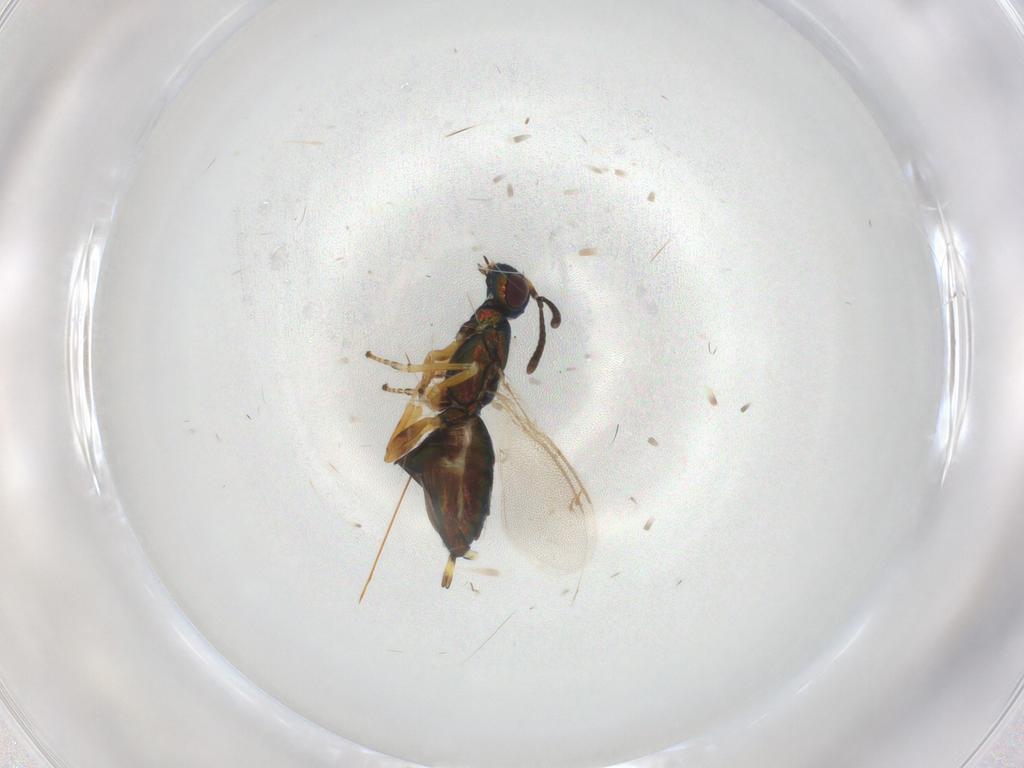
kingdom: Animalia
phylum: Arthropoda
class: Insecta
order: Hymenoptera
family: Eupelmidae
